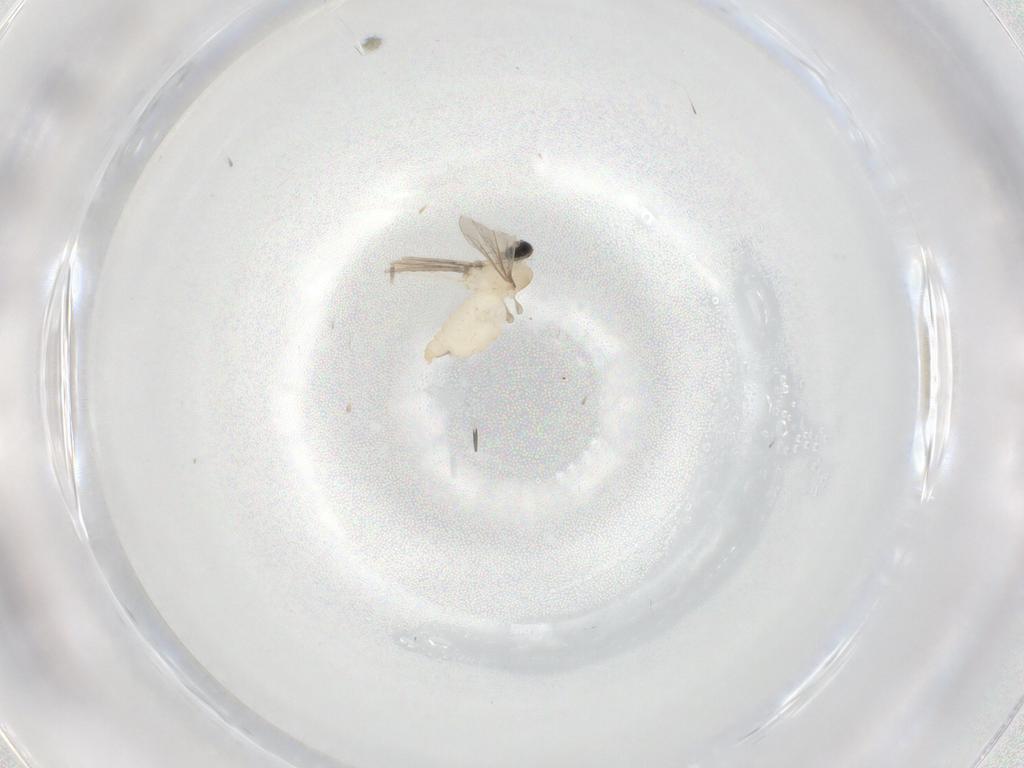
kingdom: Animalia
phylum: Arthropoda
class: Insecta
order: Diptera
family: Cecidomyiidae
